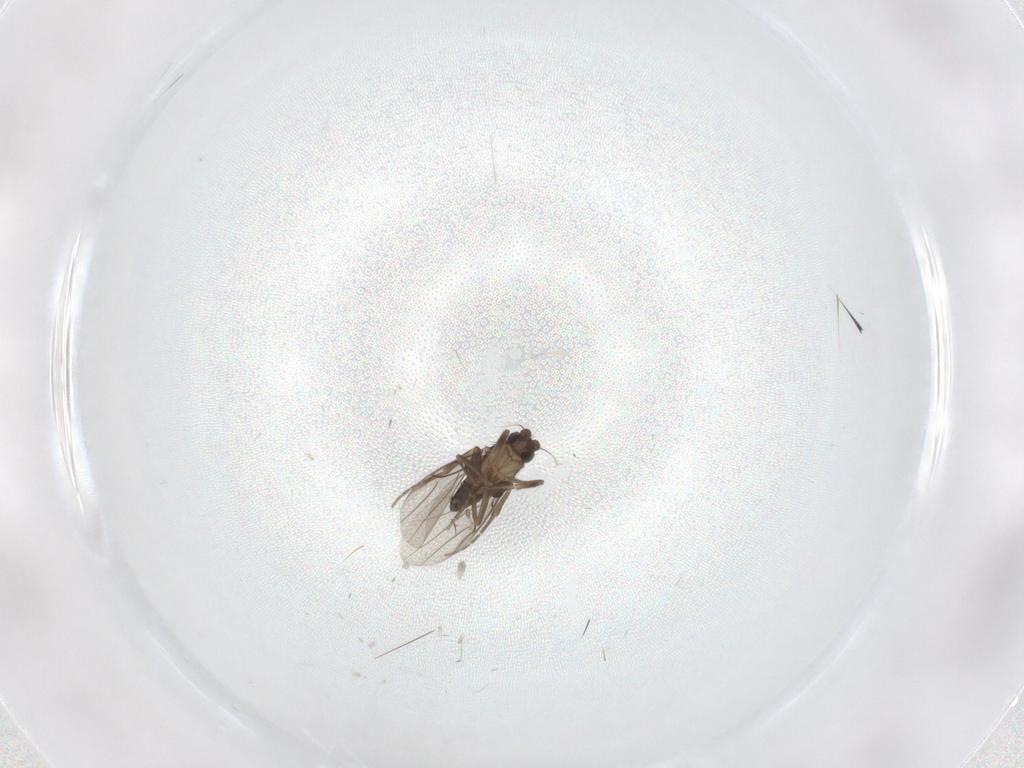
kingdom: Animalia
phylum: Arthropoda
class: Insecta
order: Diptera
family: Phoridae
